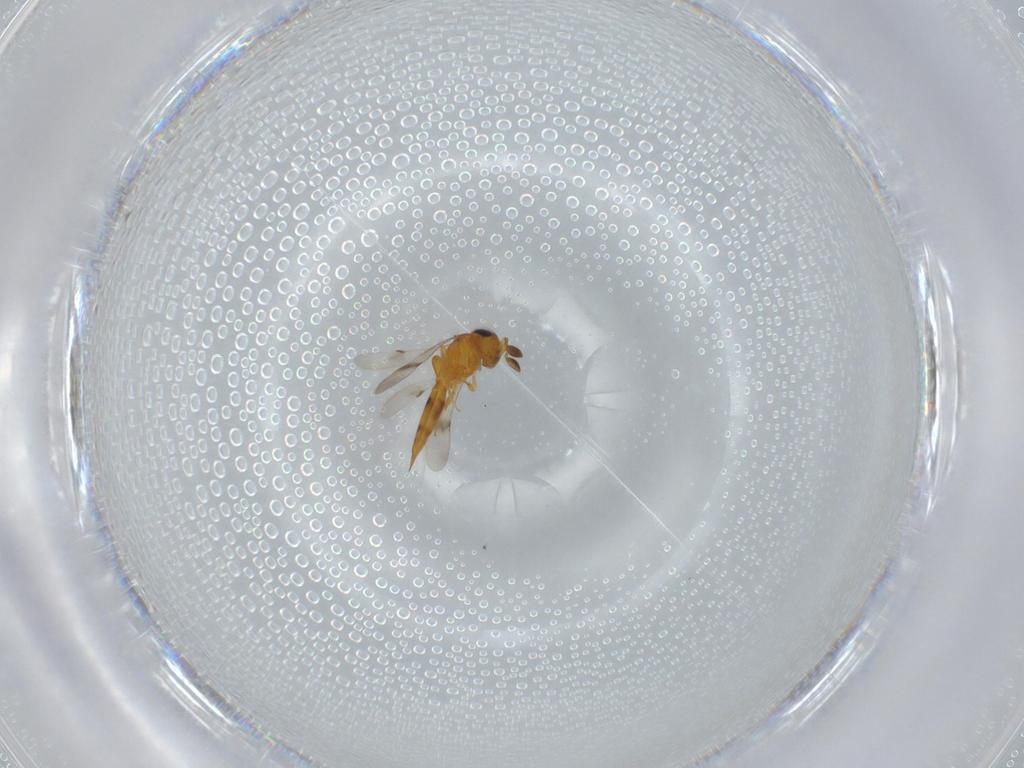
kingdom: Animalia
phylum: Arthropoda
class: Insecta
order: Hymenoptera
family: Scelionidae
